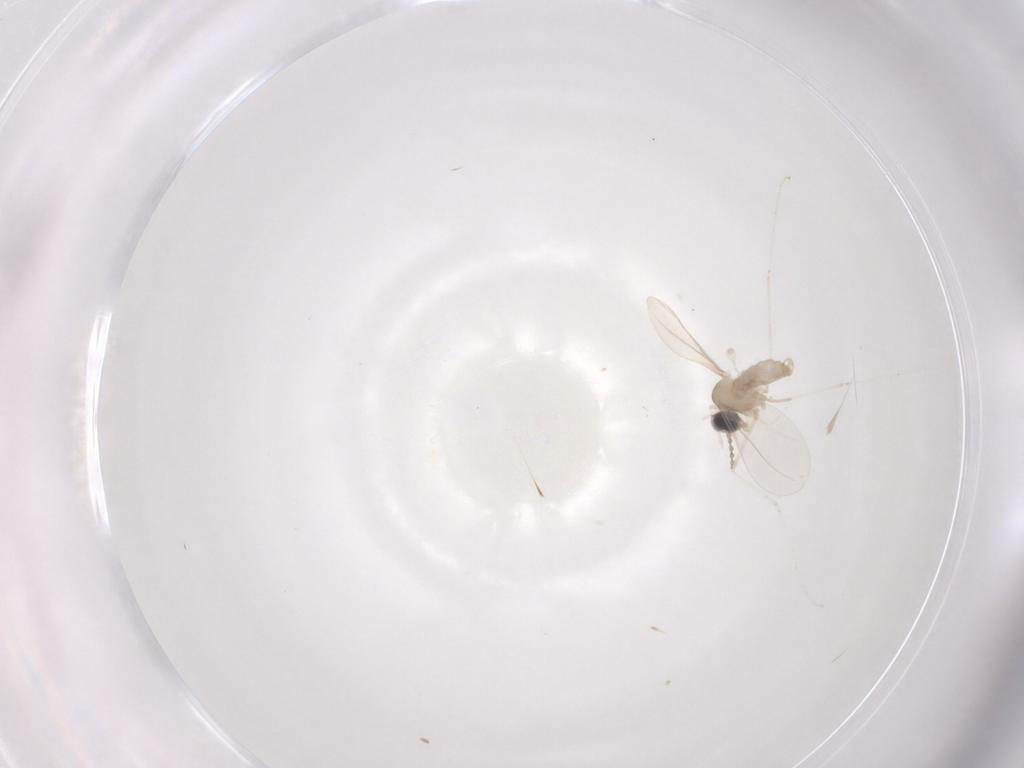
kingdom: Animalia
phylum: Arthropoda
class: Insecta
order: Diptera
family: Cecidomyiidae
